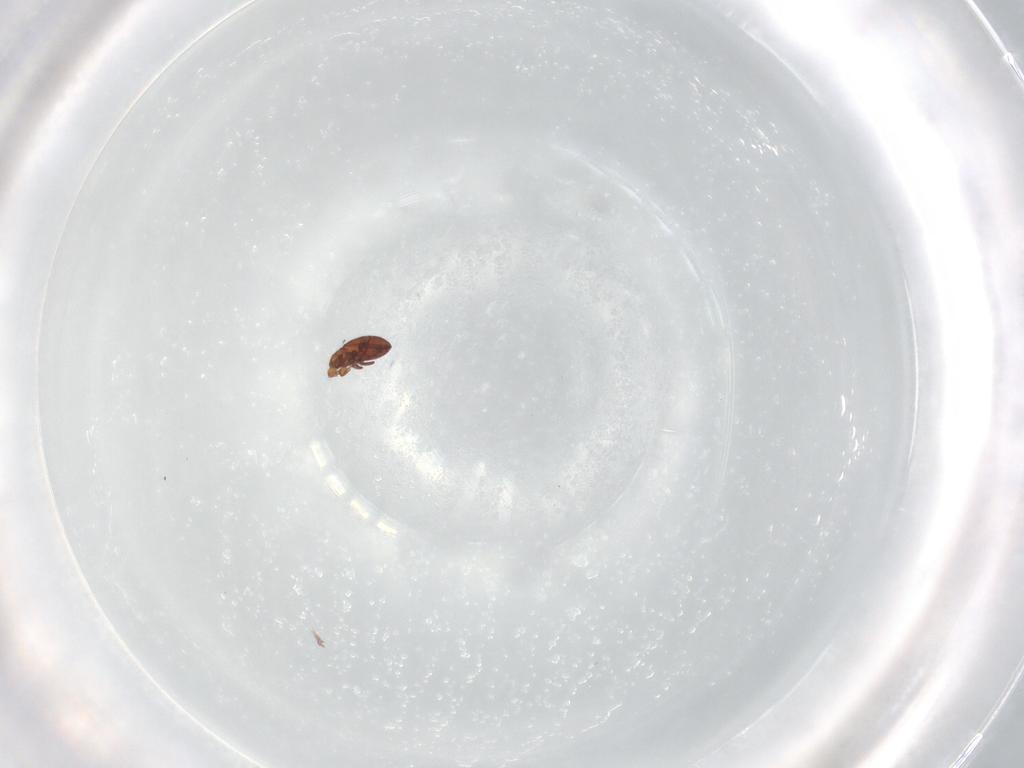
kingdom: Animalia
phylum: Arthropoda
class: Arachnida
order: Sarcoptiformes
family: Eremaeidae
